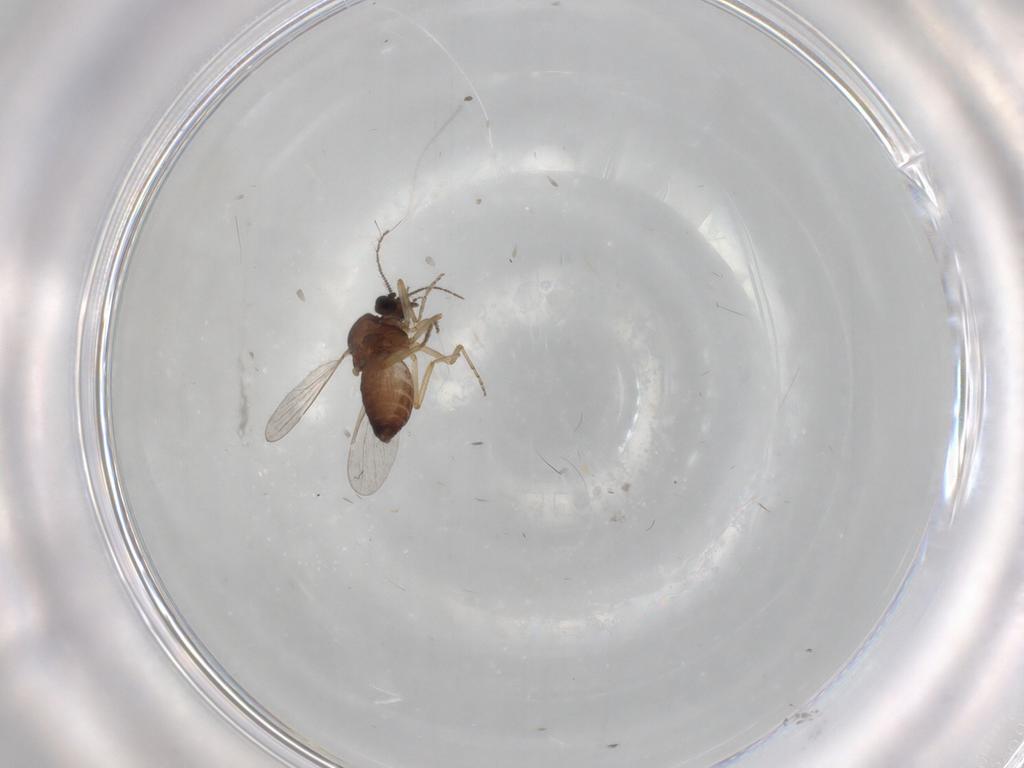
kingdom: Animalia
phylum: Arthropoda
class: Insecta
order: Diptera
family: Ceratopogonidae
